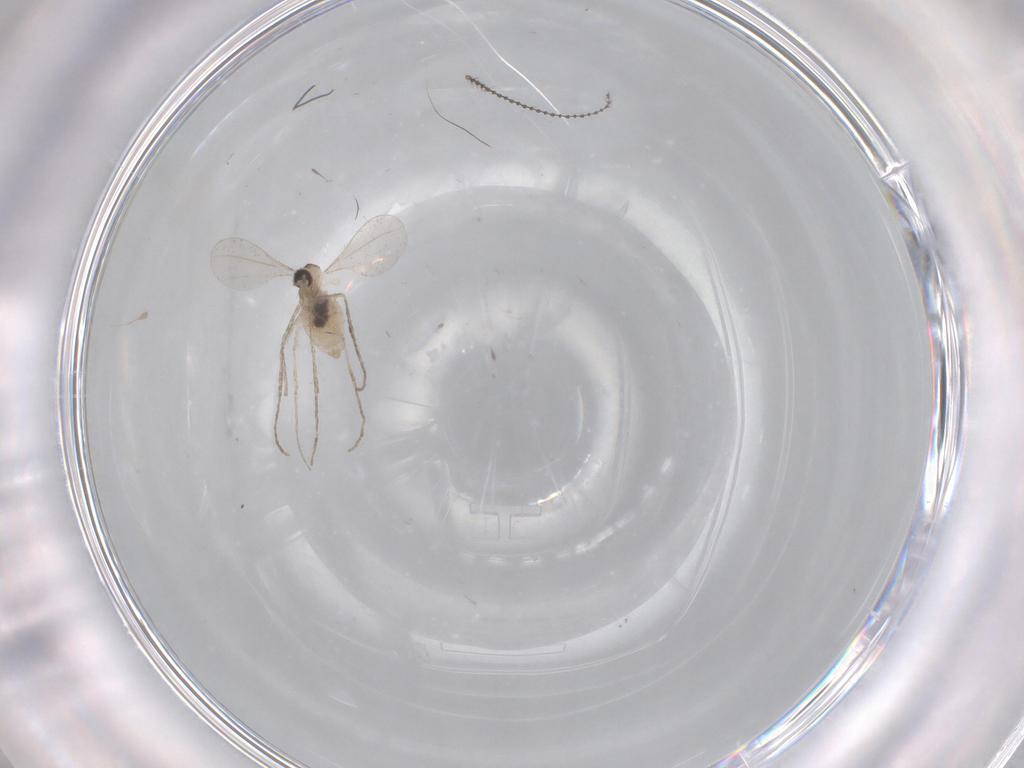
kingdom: Animalia
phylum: Arthropoda
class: Insecta
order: Diptera
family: Cecidomyiidae
